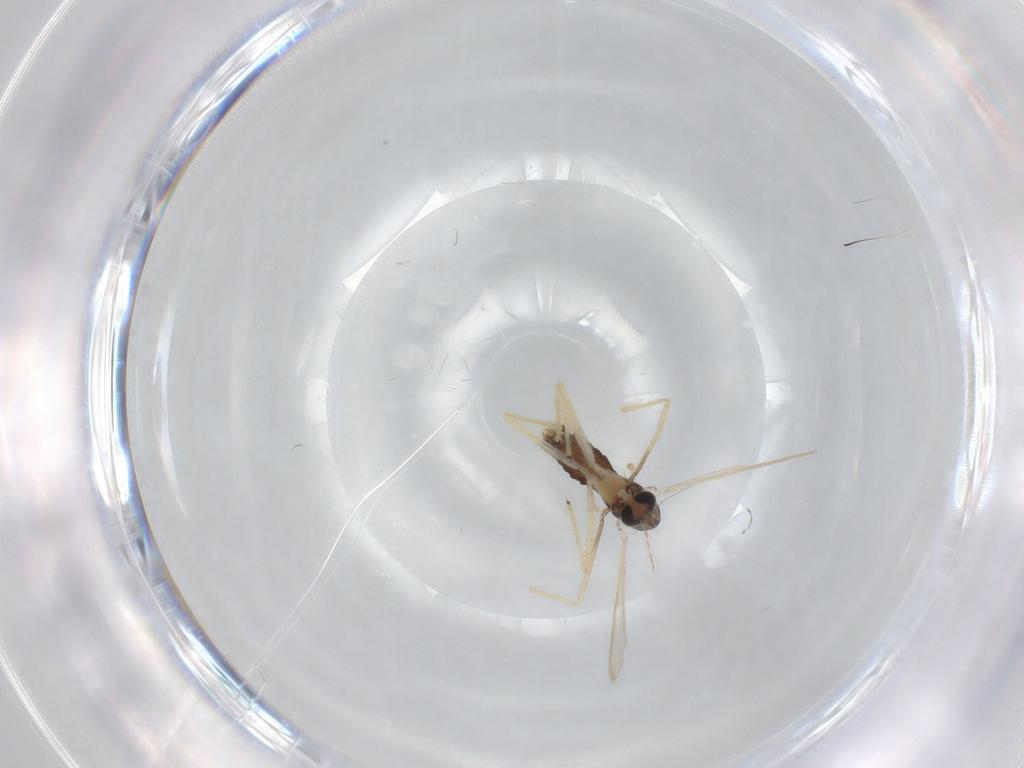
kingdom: Animalia
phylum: Arthropoda
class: Insecta
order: Diptera
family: Chironomidae
